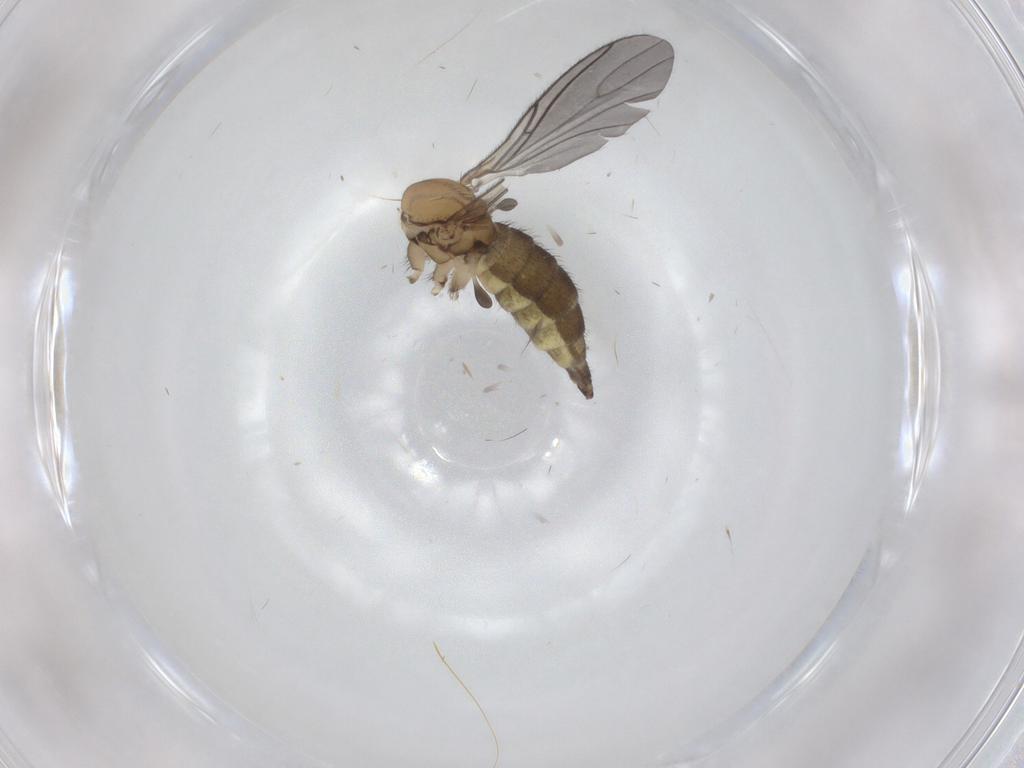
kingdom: Animalia
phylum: Arthropoda
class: Insecta
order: Diptera
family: Sciaridae
